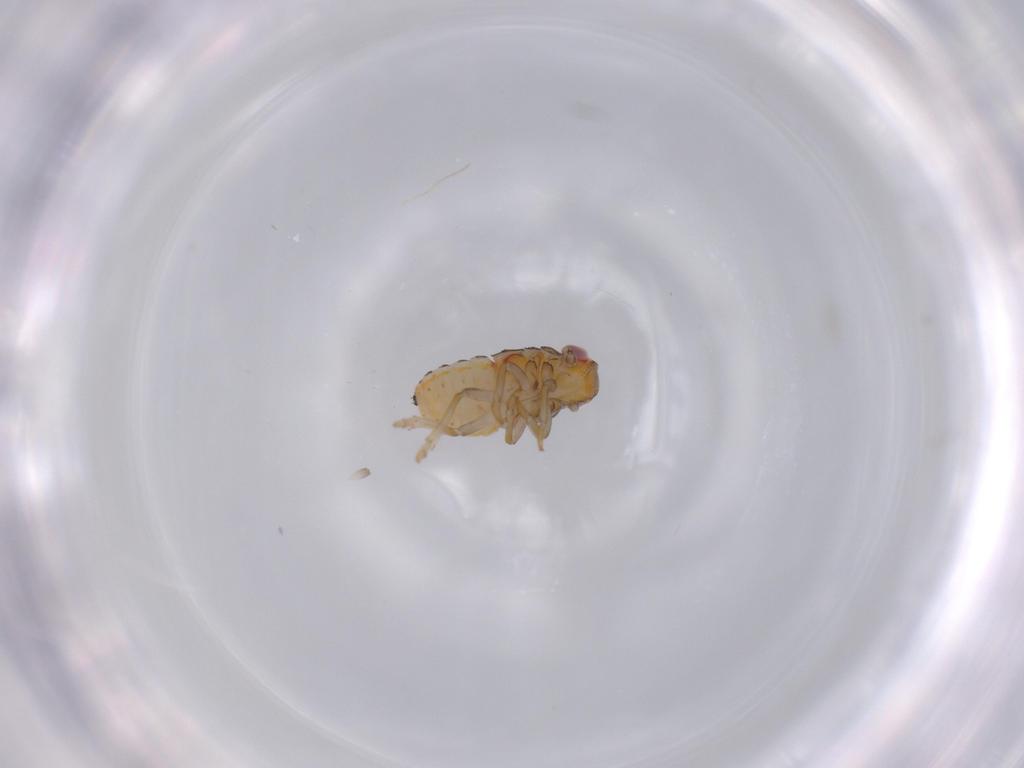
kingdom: Animalia
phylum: Arthropoda
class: Insecta
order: Hemiptera
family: Issidae
